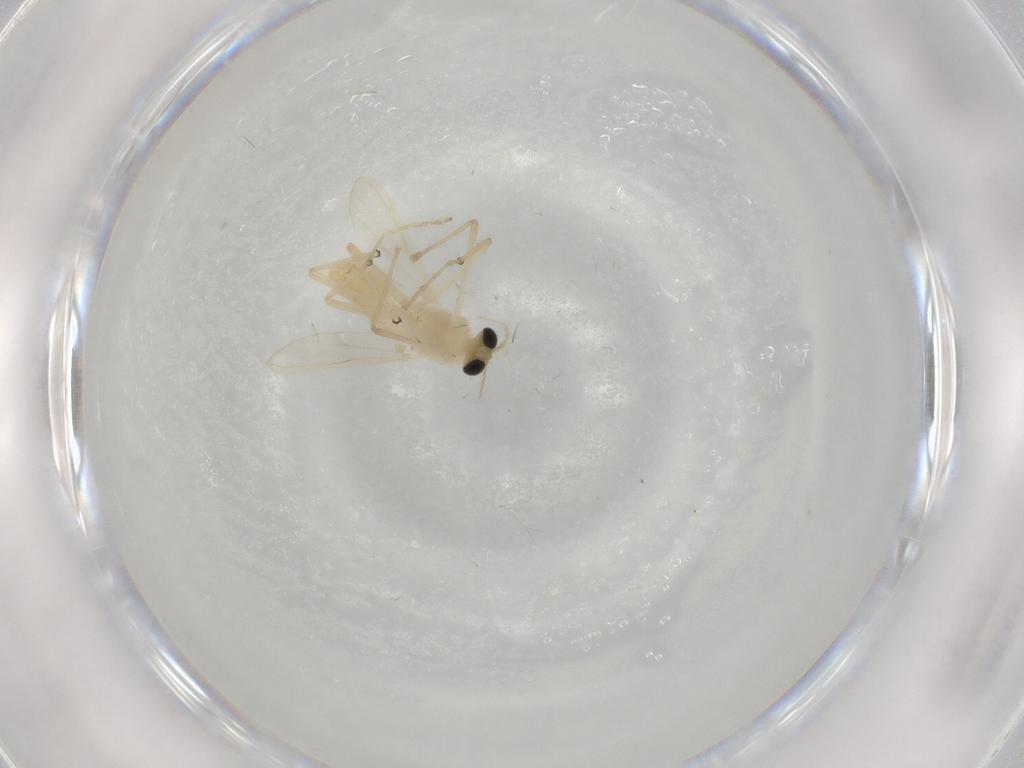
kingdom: Animalia
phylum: Arthropoda
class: Insecta
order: Diptera
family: Chironomidae
